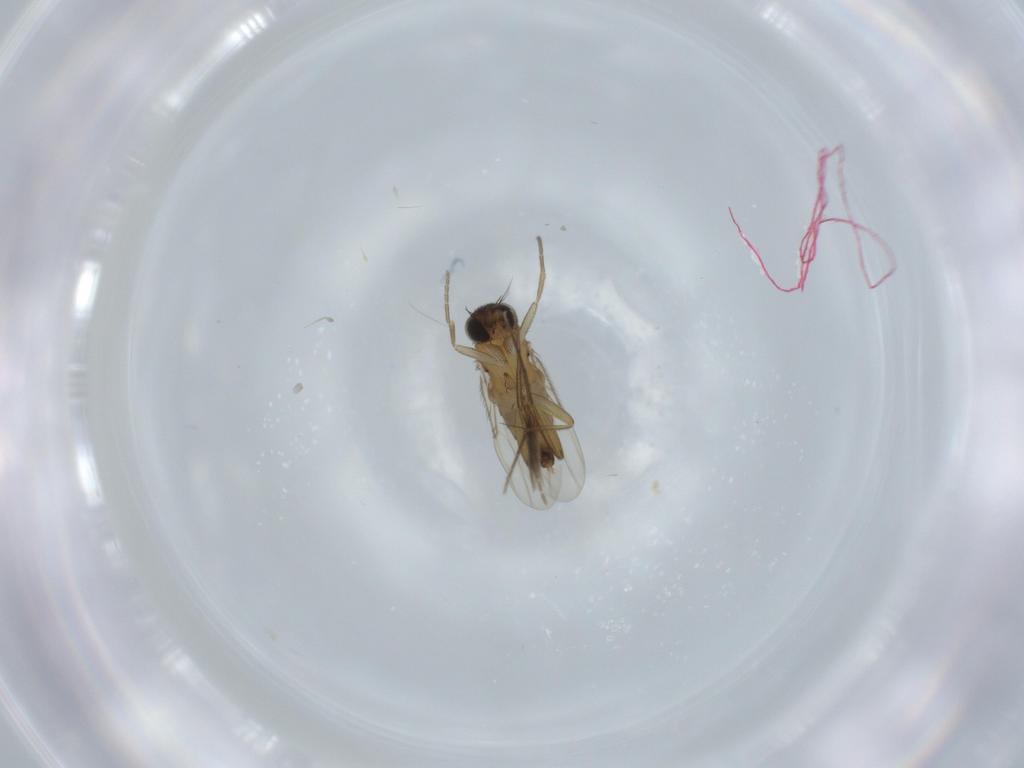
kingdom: Animalia
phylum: Arthropoda
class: Insecta
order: Diptera
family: Phoridae
